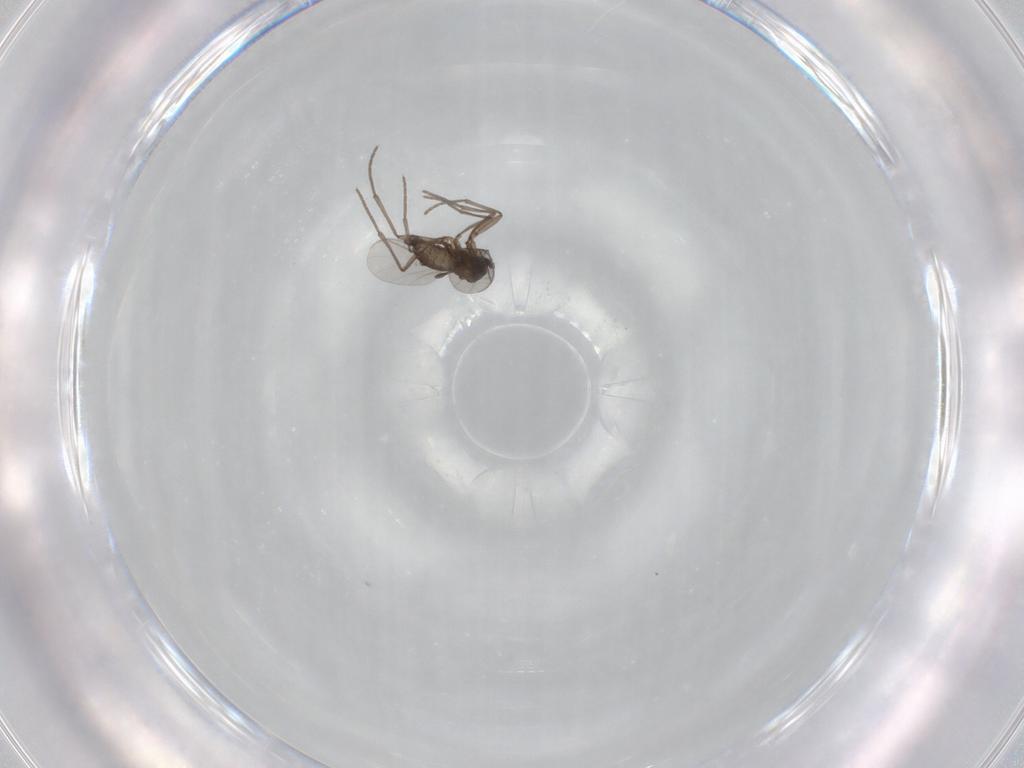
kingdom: Animalia
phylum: Arthropoda
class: Insecta
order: Diptera
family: Sciaridae
